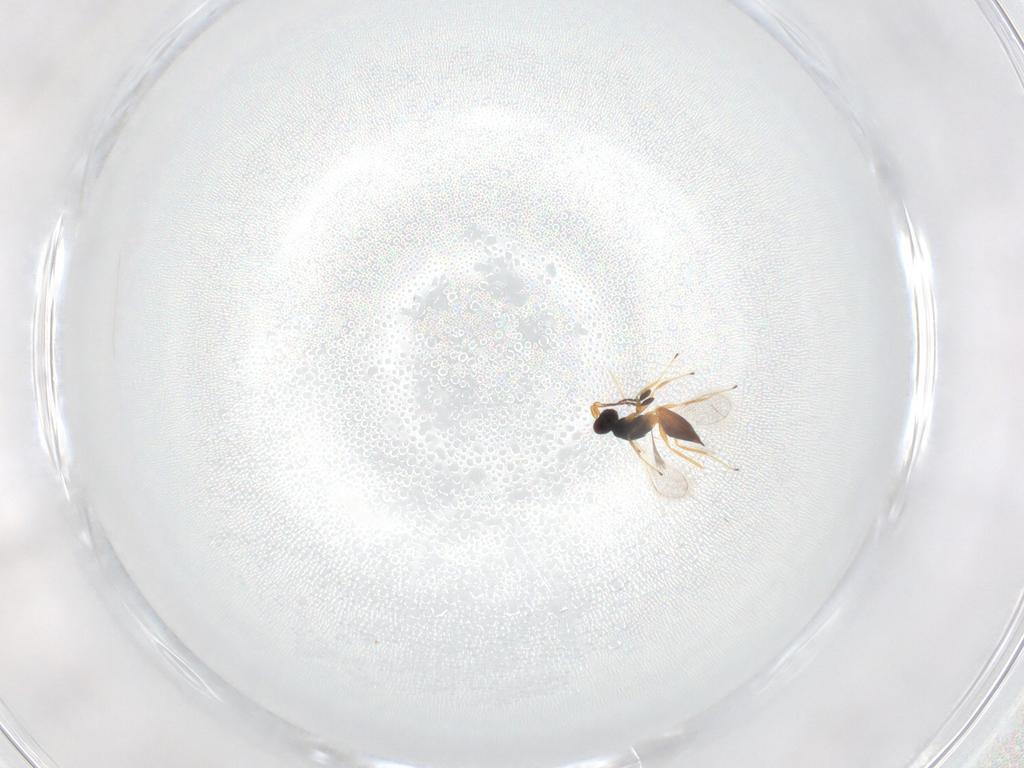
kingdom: Animalia
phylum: Arthropoda
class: Insecta
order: Hymenoptera
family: Mymaridae
